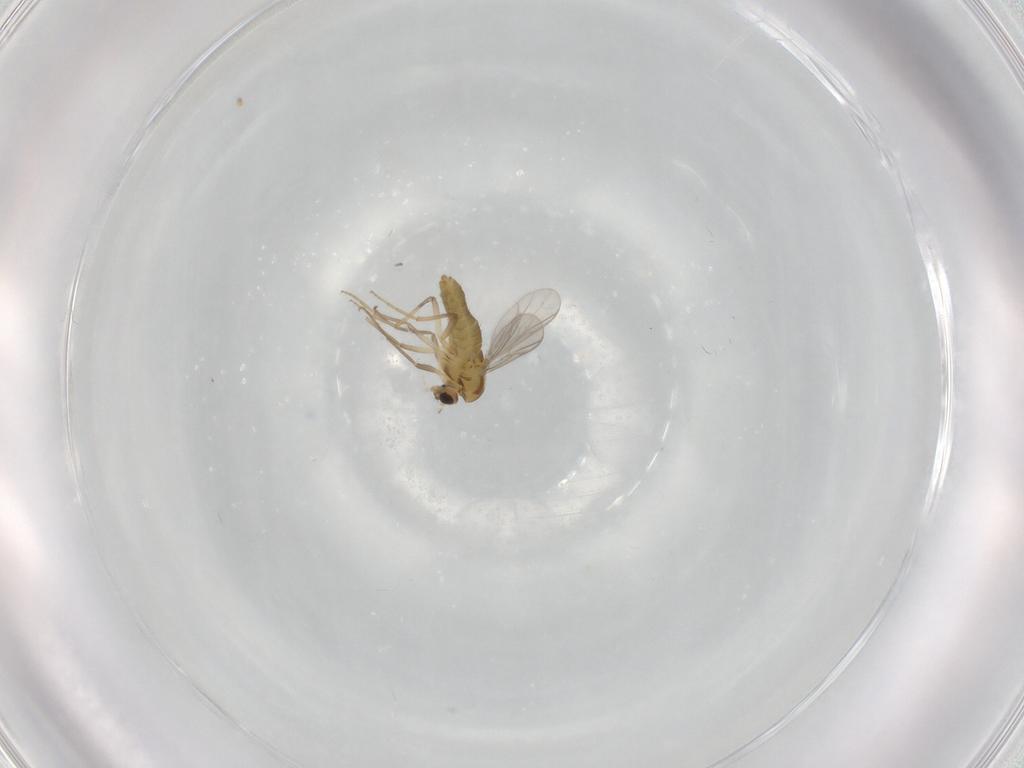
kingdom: Animalia
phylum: Arthropoda
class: Insecta
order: Diptera
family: Chironomidae
